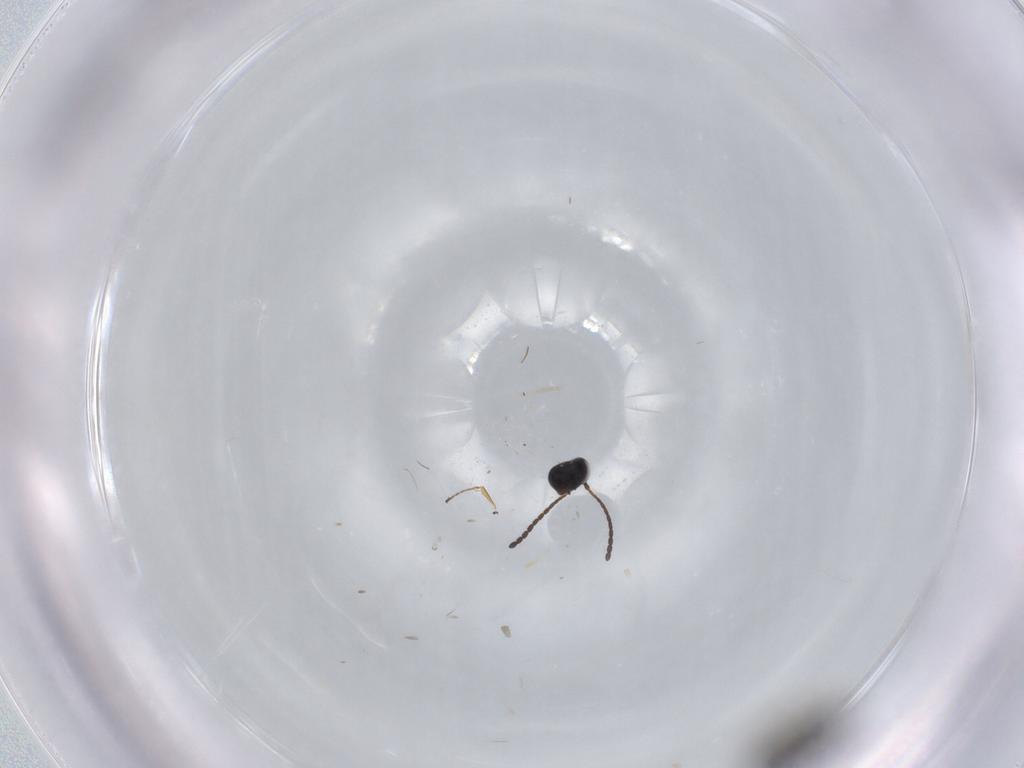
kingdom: Animalia
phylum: Arthropoda
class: Insecta
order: Hymenoptera
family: Figitidae
